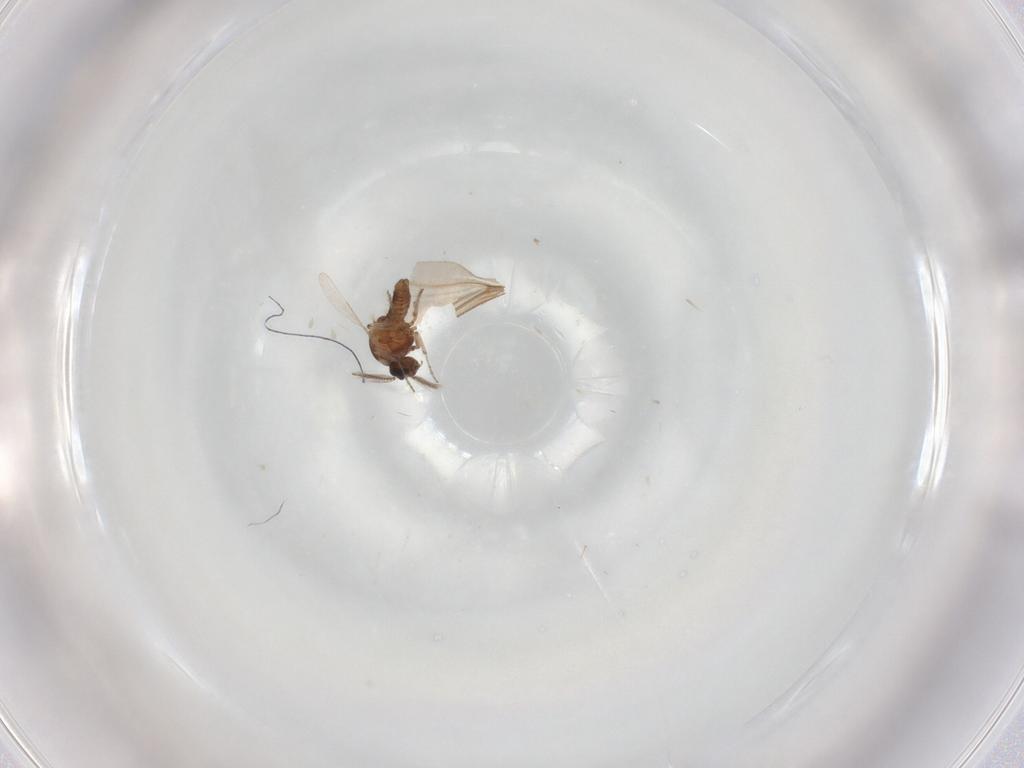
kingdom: Animalia
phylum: Arthropoda
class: Insecta
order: Diptera
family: Ceratopogonidae
